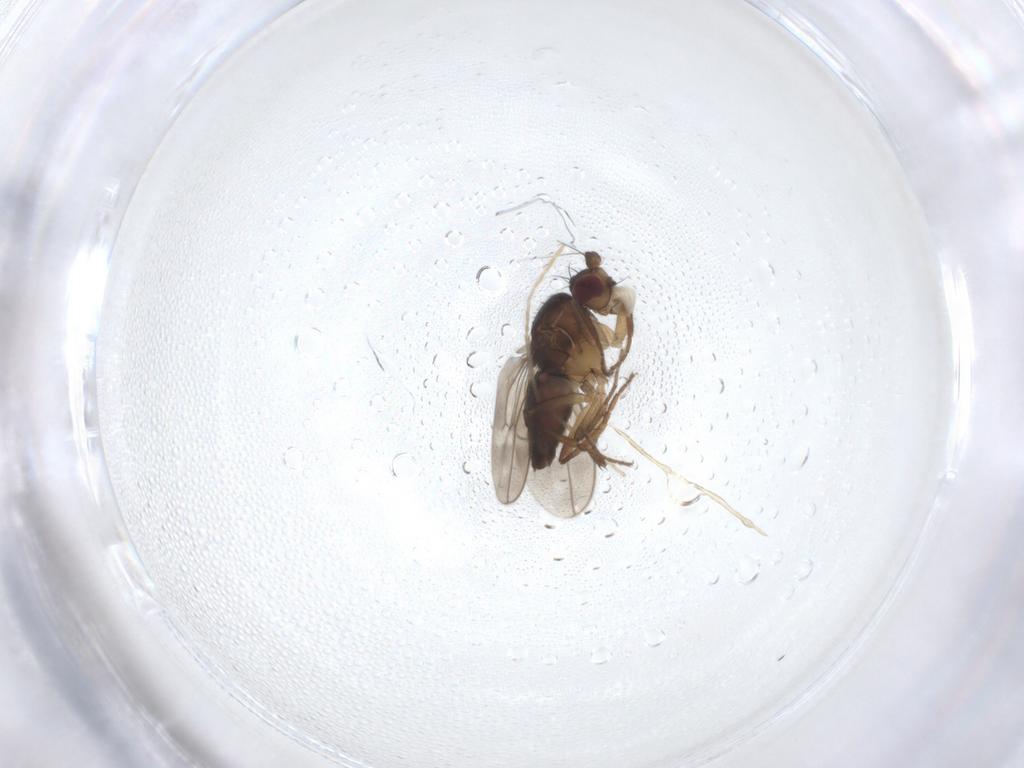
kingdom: Animalia
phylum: Arthropoda
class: Insecta
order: Diptera
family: Sphaeroceridae
